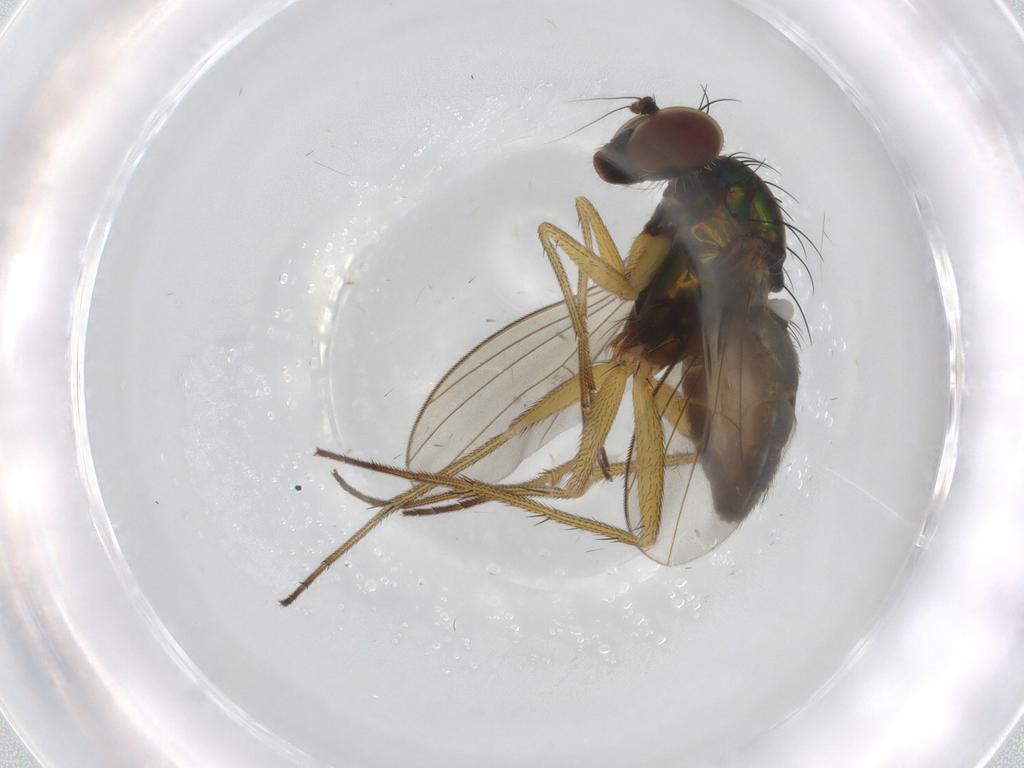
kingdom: Animalia
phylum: Arthropoda
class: Insecta
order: Diptera
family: Dolichopodidae
